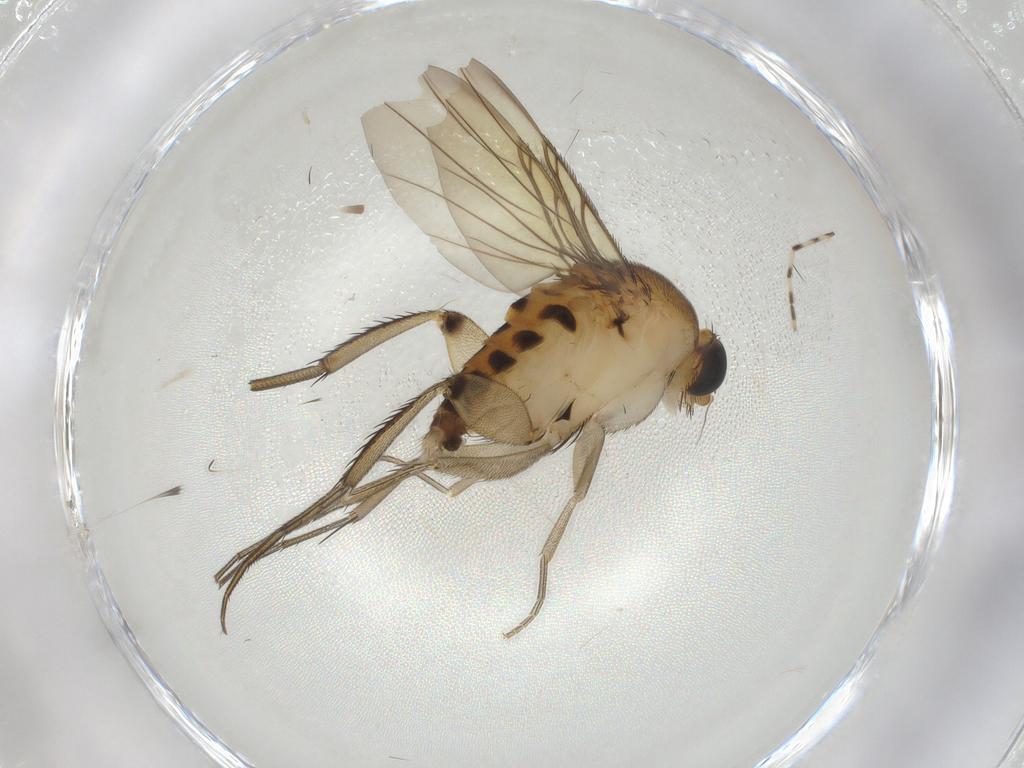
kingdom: Animalia
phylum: Arthropoda
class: Insecta
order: Diptera
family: Phoridae
